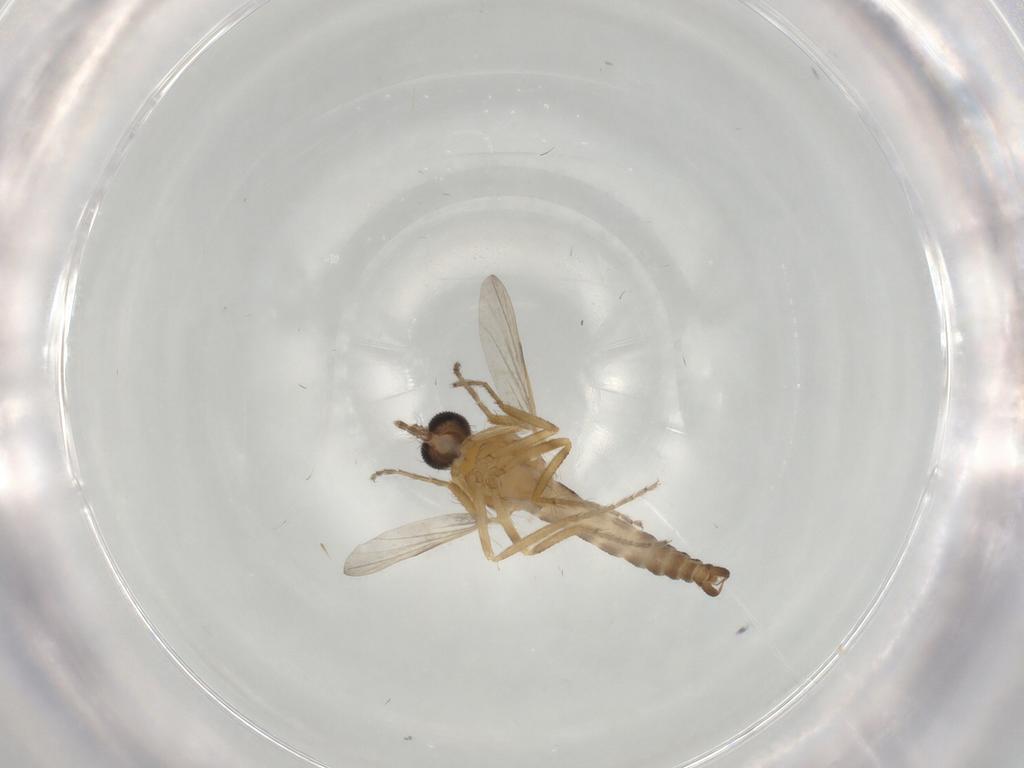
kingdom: Animalia
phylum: Arthropoda
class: Insecta
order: Diptera
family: Ceratopogonidae
